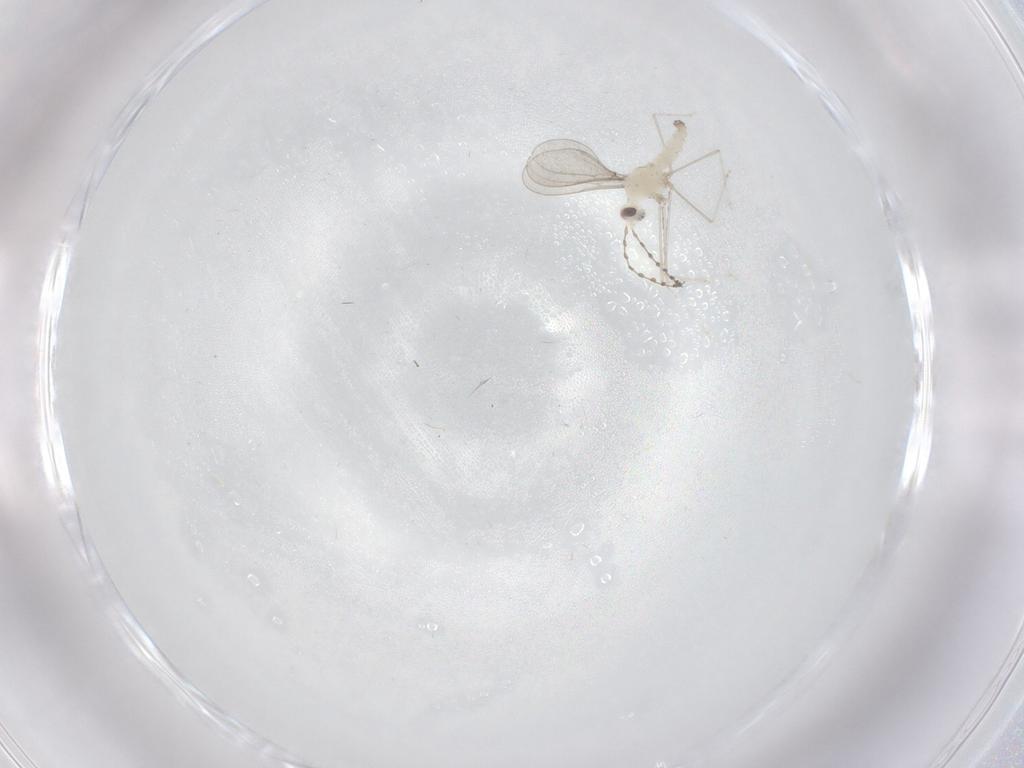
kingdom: Animalia
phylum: Arthropoda
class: Insecta
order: Diptera
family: Cecidomyiidae
